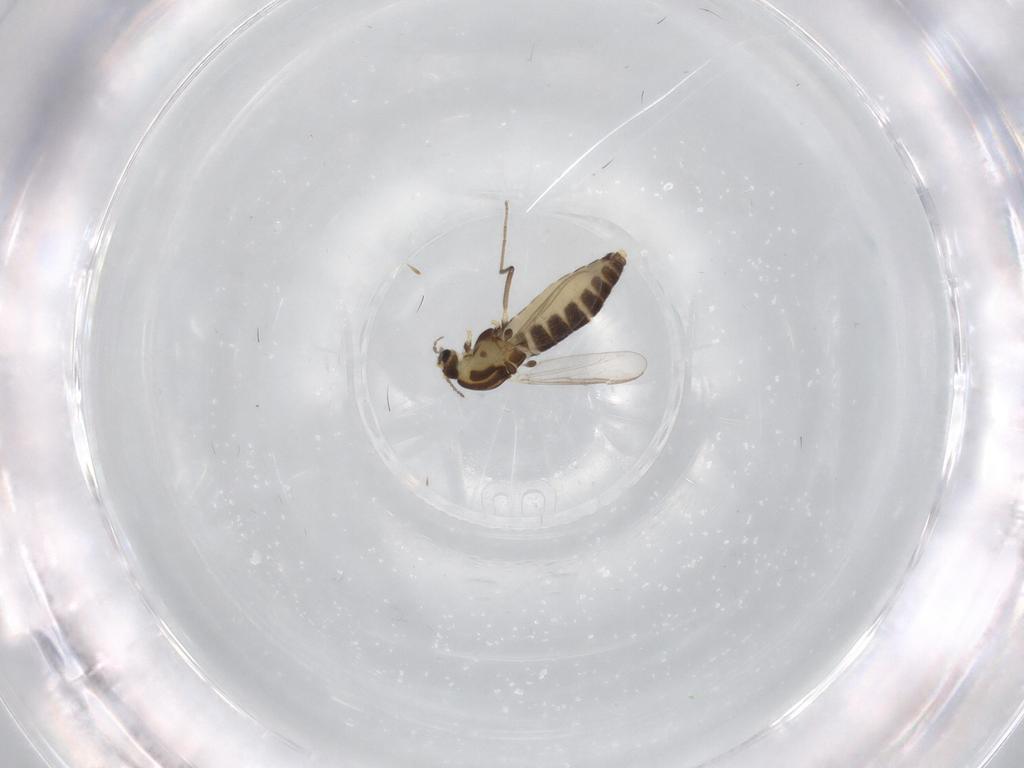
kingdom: Animalia
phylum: Arthropoda
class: Insecta
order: Diptera
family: Chironomidae
